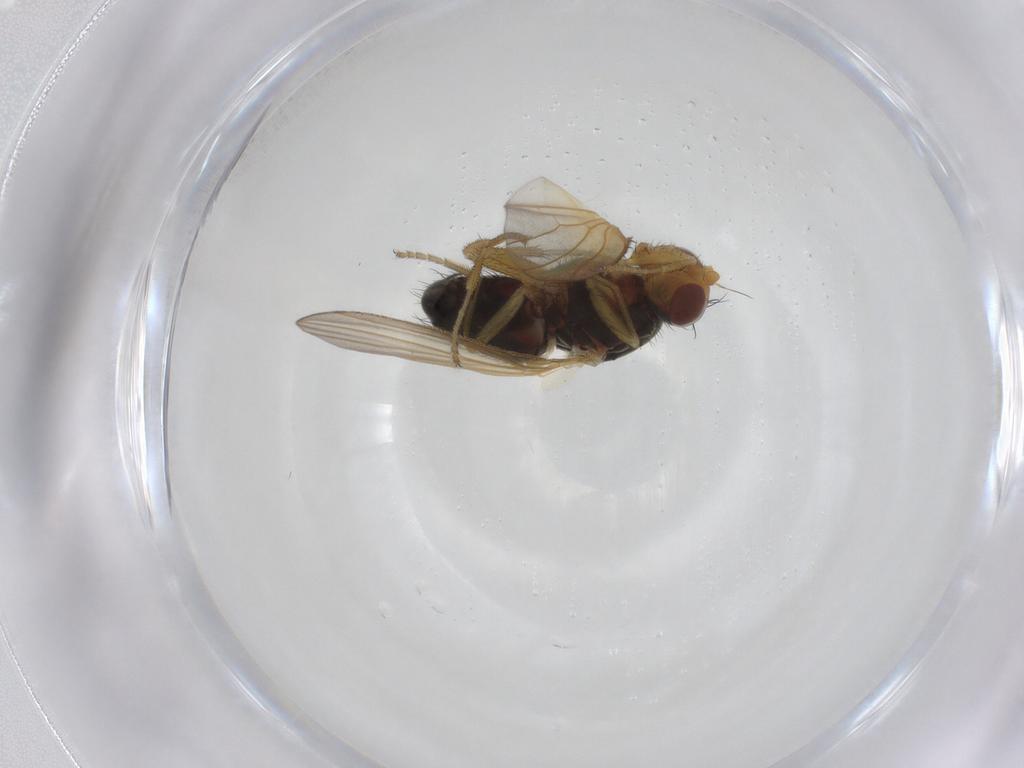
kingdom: Animalia
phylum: Arthropoda
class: Insecta
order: Diptera
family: Heleomyzidae
